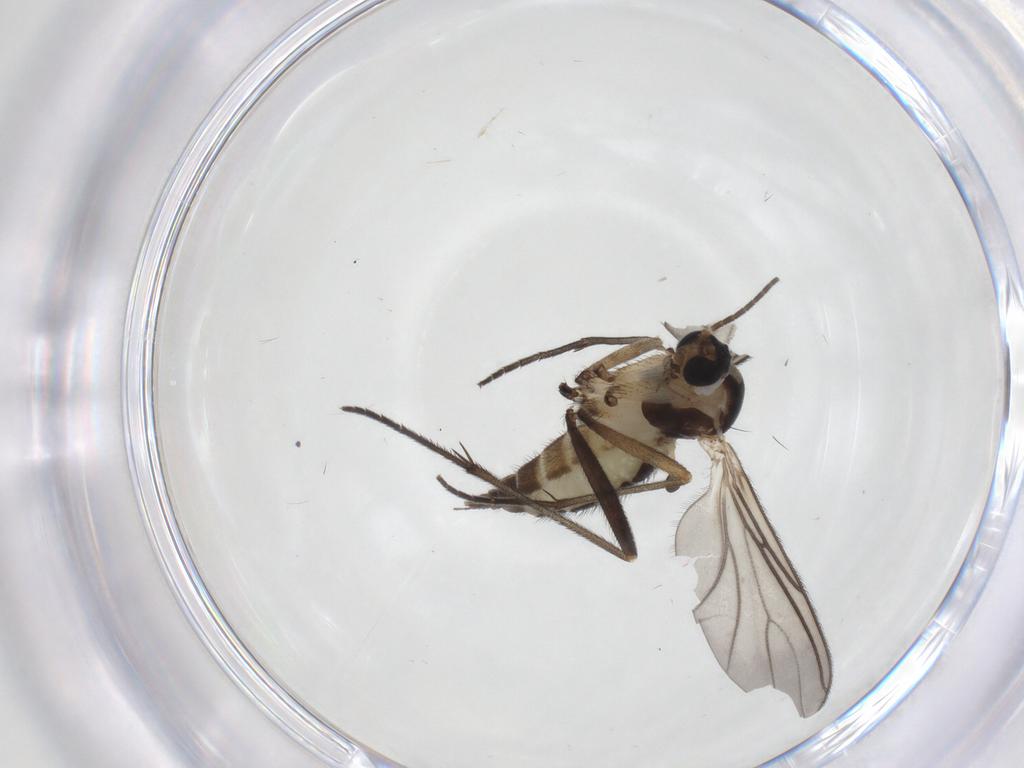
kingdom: Animalia
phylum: Arthropoda
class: Insecta
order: Diptera
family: Sciaridae
